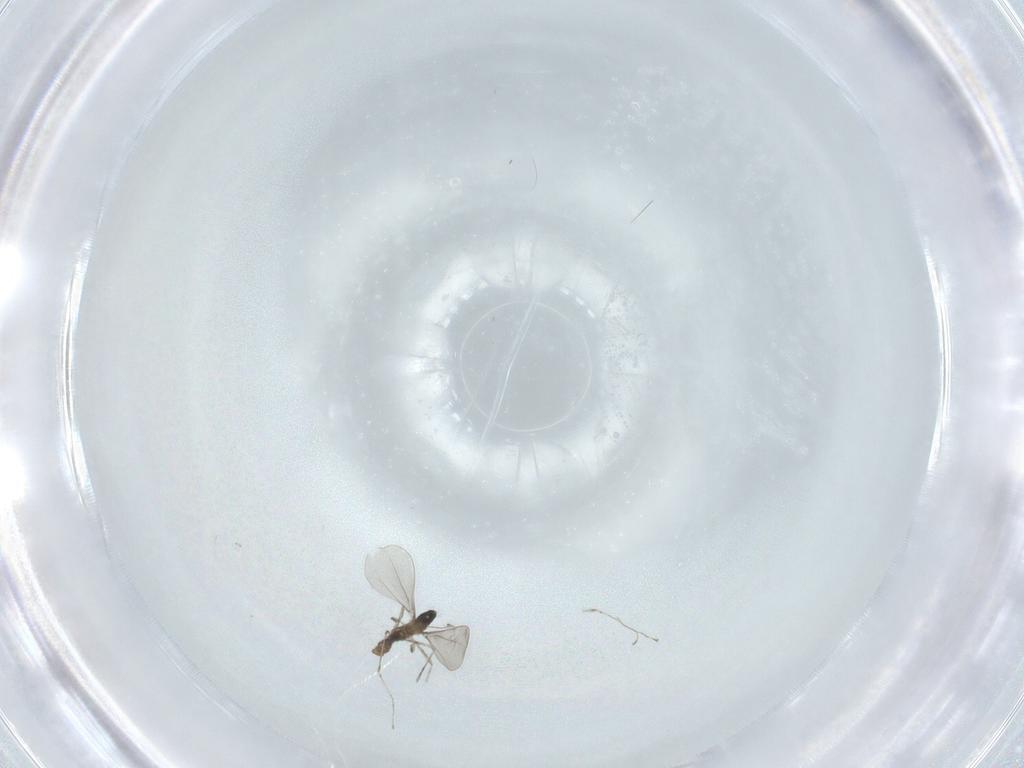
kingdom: Animalia
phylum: Arthropoda
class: Insecta
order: Diptera
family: Cecidomyiidae
